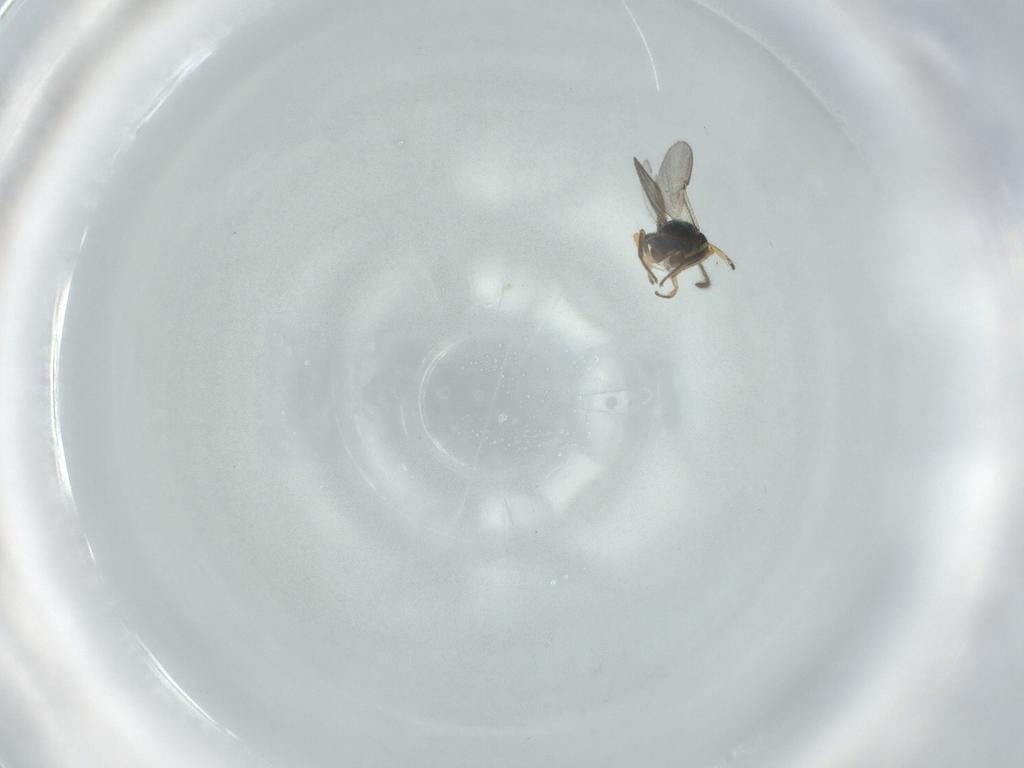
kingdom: Animalia
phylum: Arthropoda
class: Insecta
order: Hymenoptera
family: Encyrtidae
